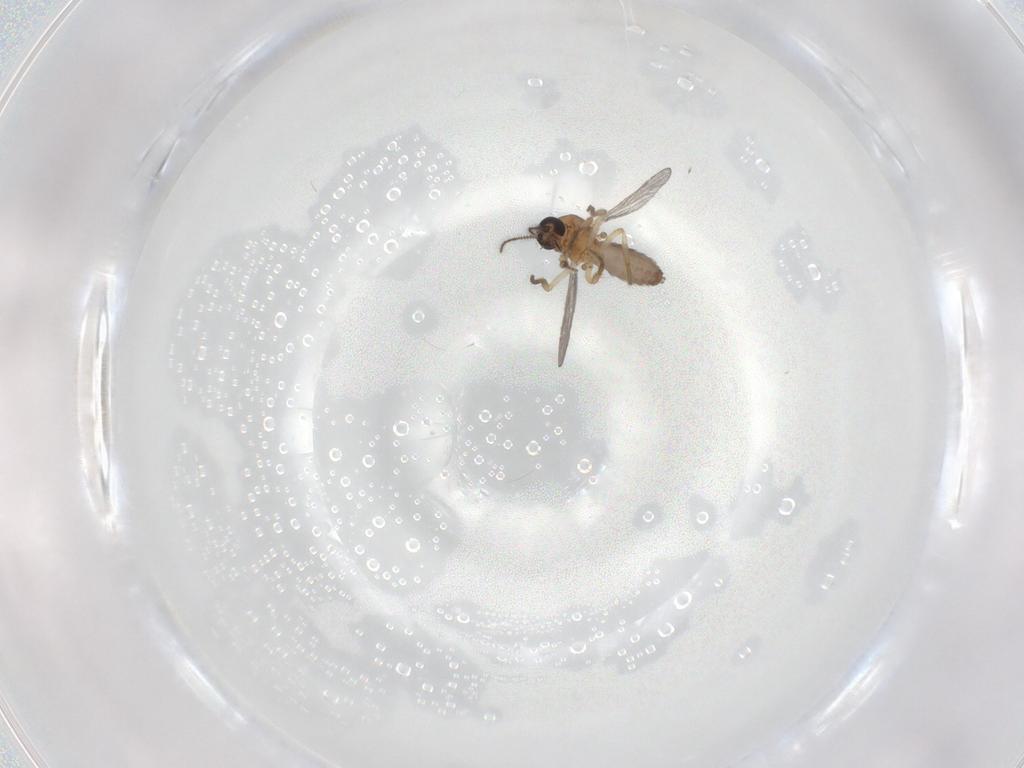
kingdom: Animalia
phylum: Arthropoda
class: Insecta
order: Diptera
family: Ceratopogonidae
